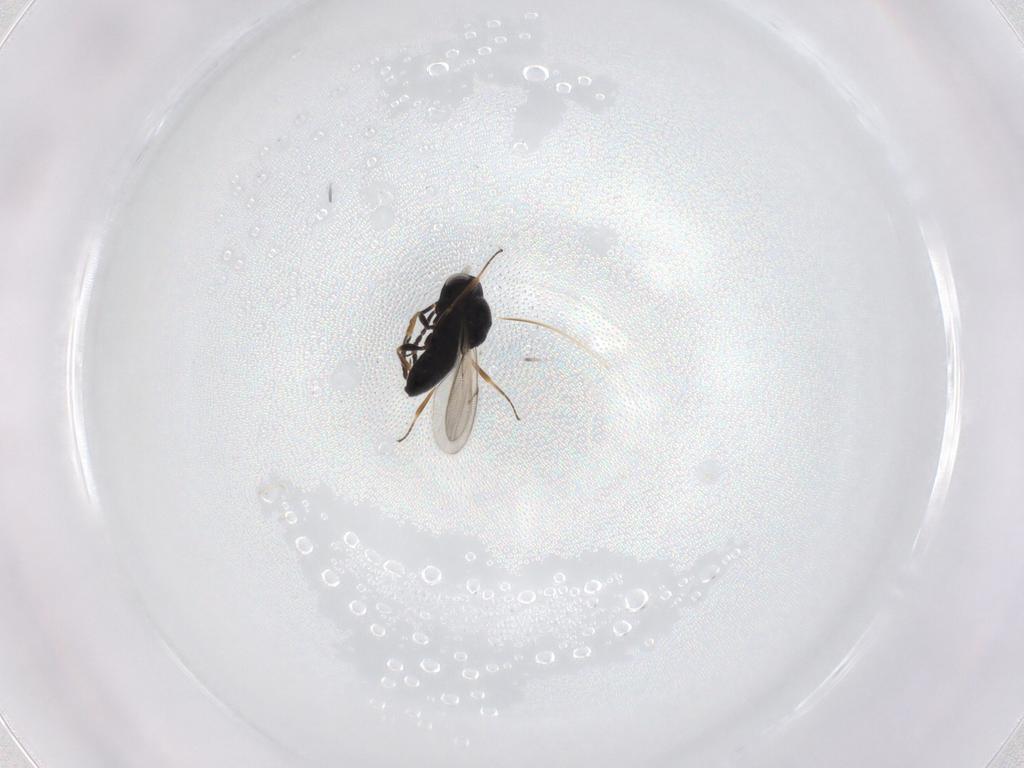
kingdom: Animalia
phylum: Arthropoda
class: Insecta
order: Hymenoptera
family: Scelionidae
